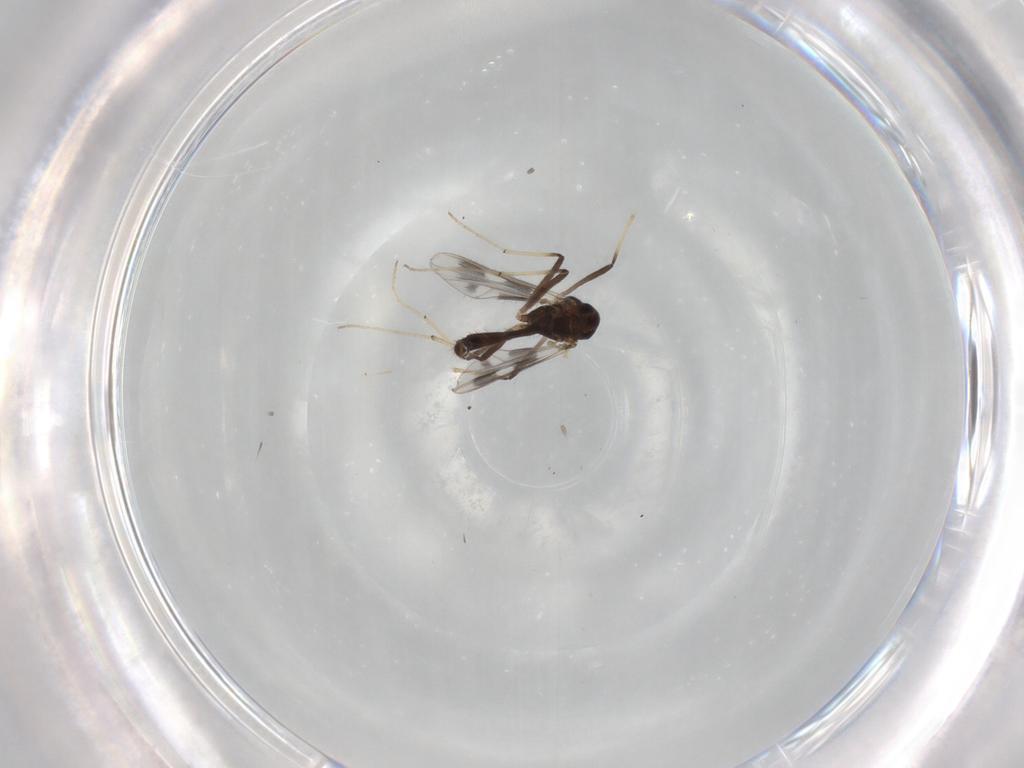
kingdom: Animalia
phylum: Arthropoda
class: Insecta
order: Diptera
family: Chironomidae
